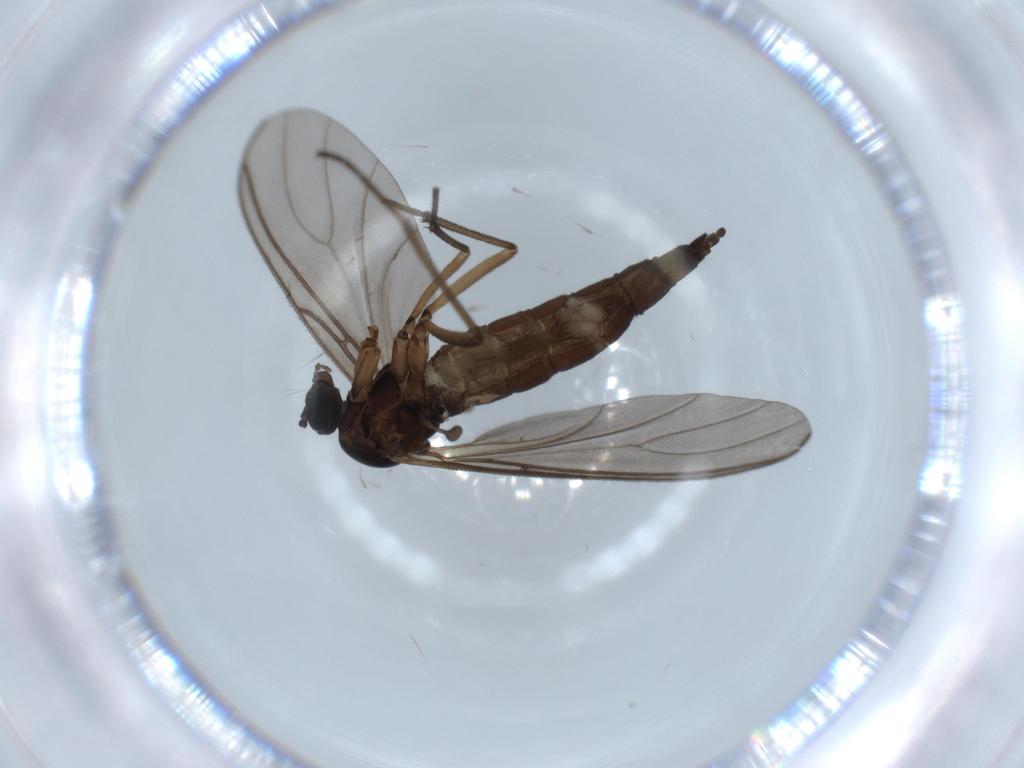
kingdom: Animalia
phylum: Arthropoda
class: Insecta
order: Diptera
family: Sciaridae
